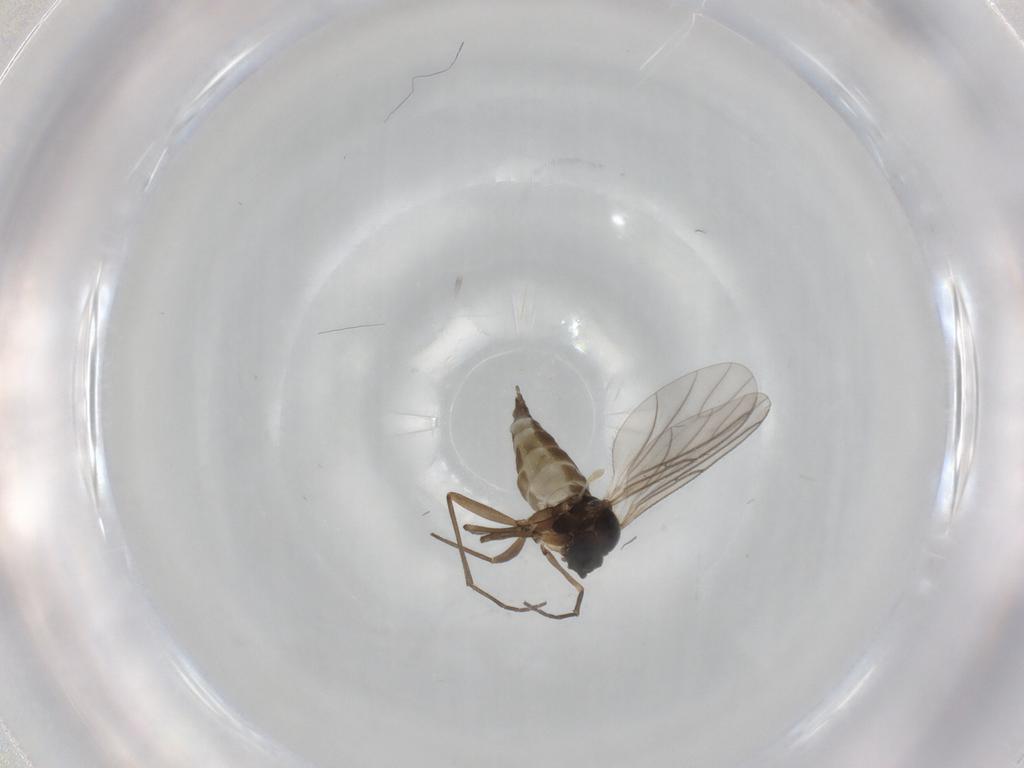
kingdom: Animalia
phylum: Arthropoda
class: Insecta
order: Diptera
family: Sciaridae
